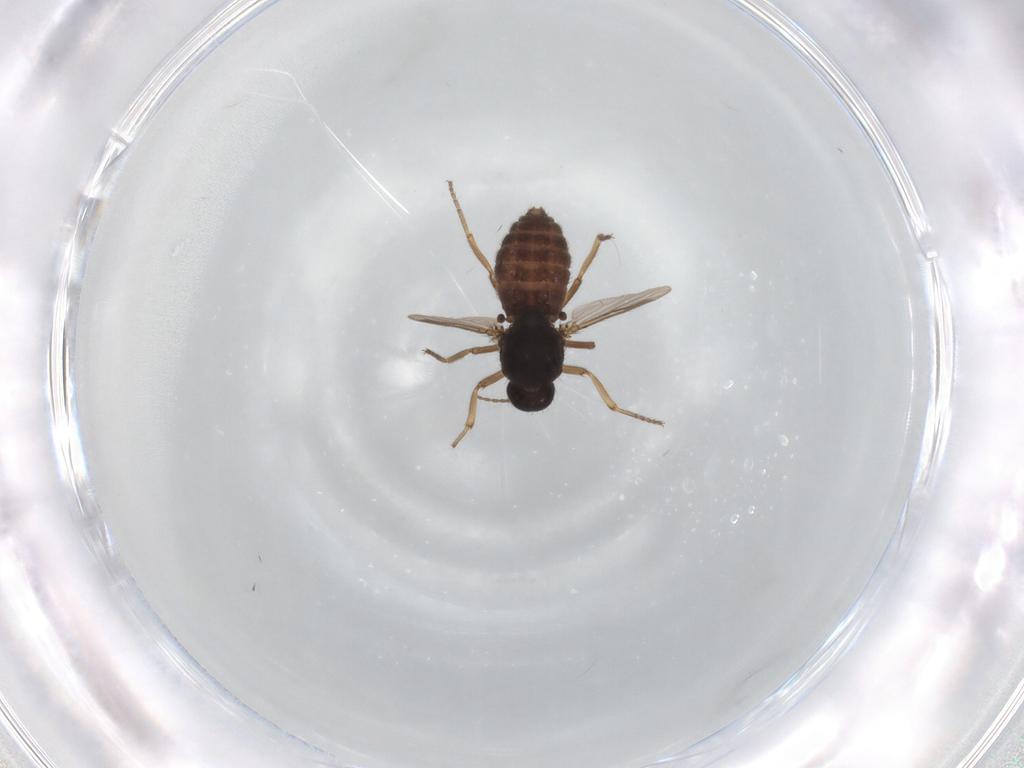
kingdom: Animalia
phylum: Arthropoda
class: Insecta
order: Diptera
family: Ceratopogonidae
